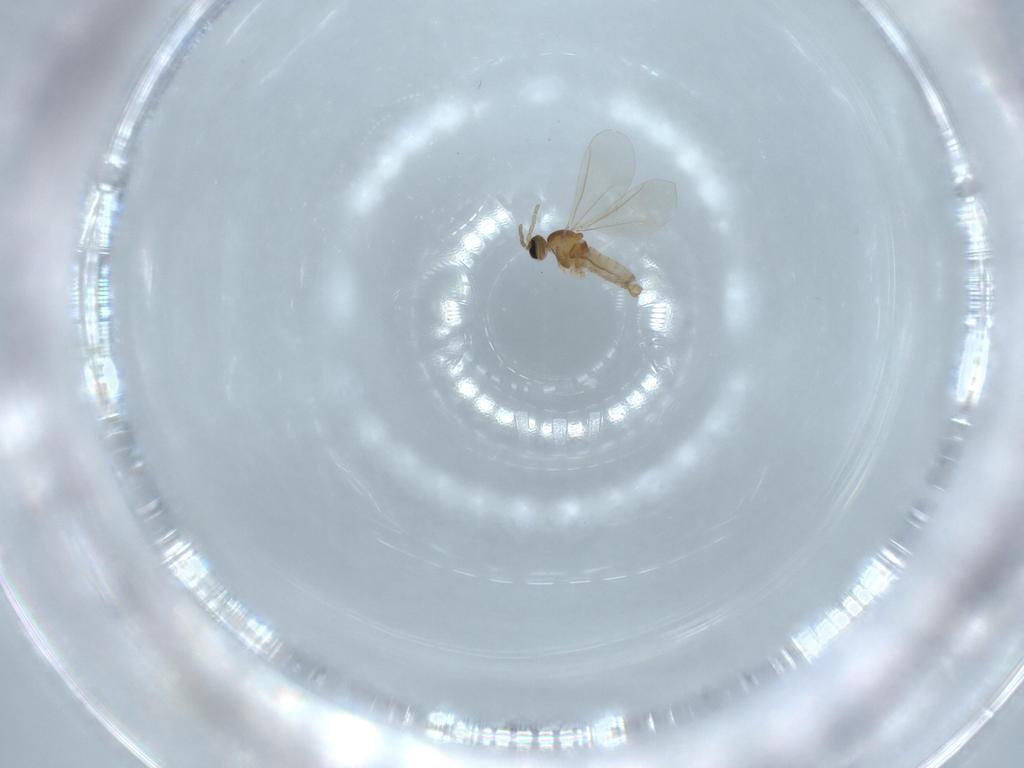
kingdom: Animalia
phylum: Arthropoda
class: Insecta
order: Diptera
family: Cecidomyiidae
